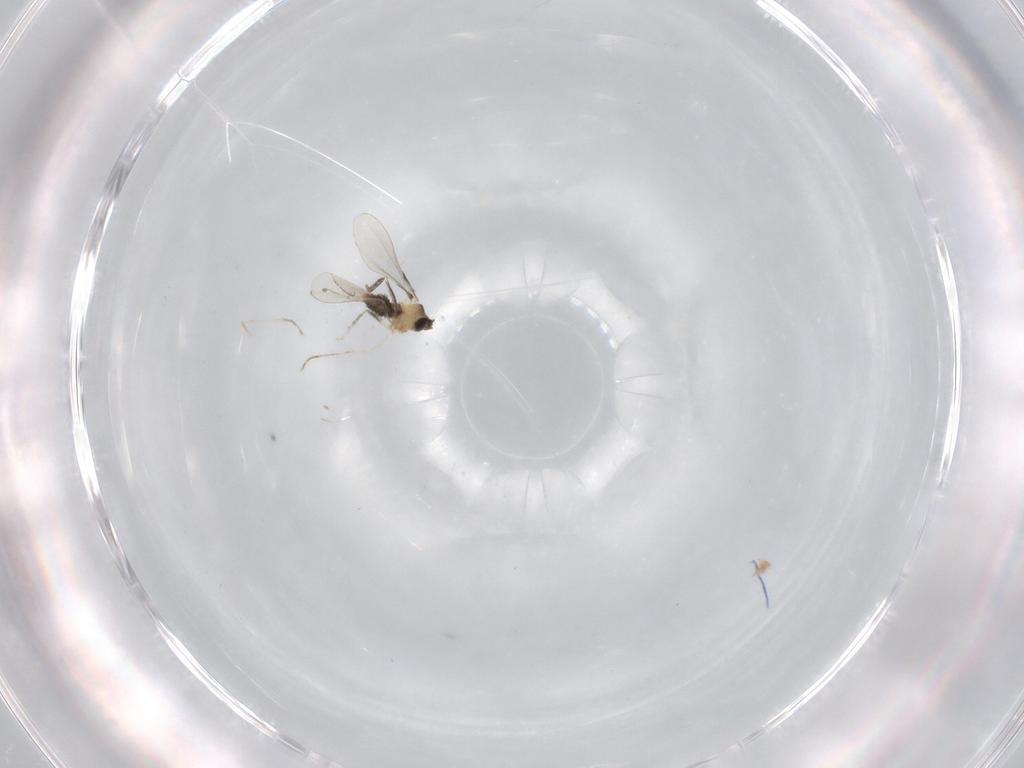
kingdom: Animalia
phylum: Arthropoda
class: Insecta
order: Diptera
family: Cecidomyiidae
